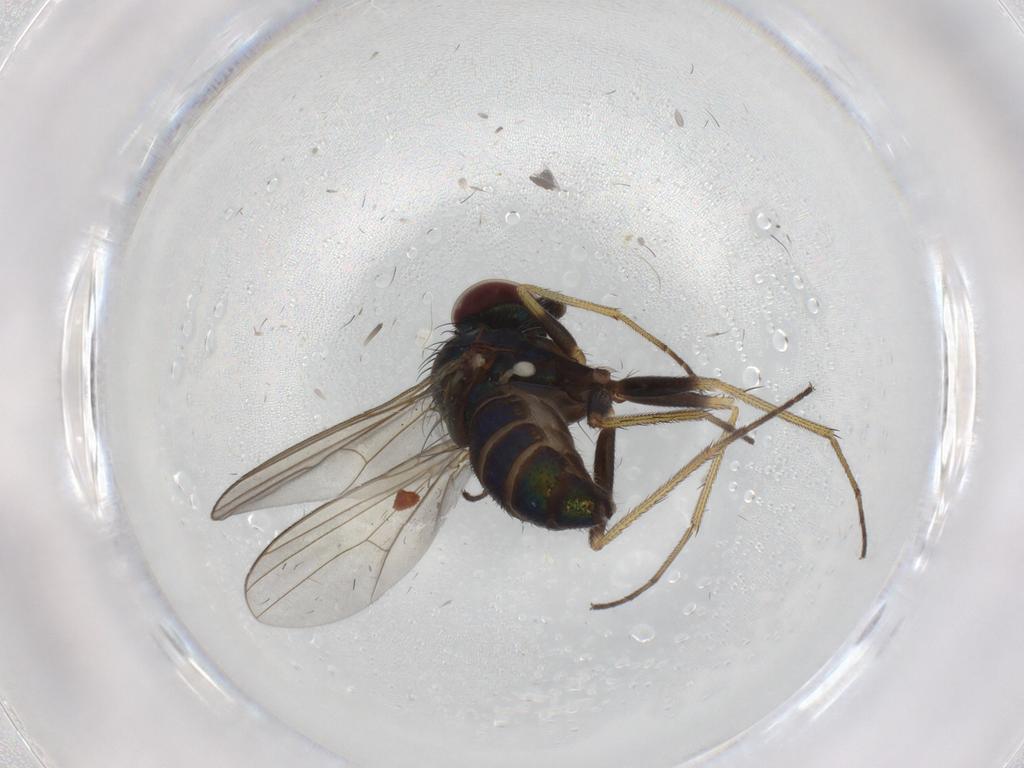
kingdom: Animalia
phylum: Arthropoda
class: Insecta
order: Diptera
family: Dolichopodidae
